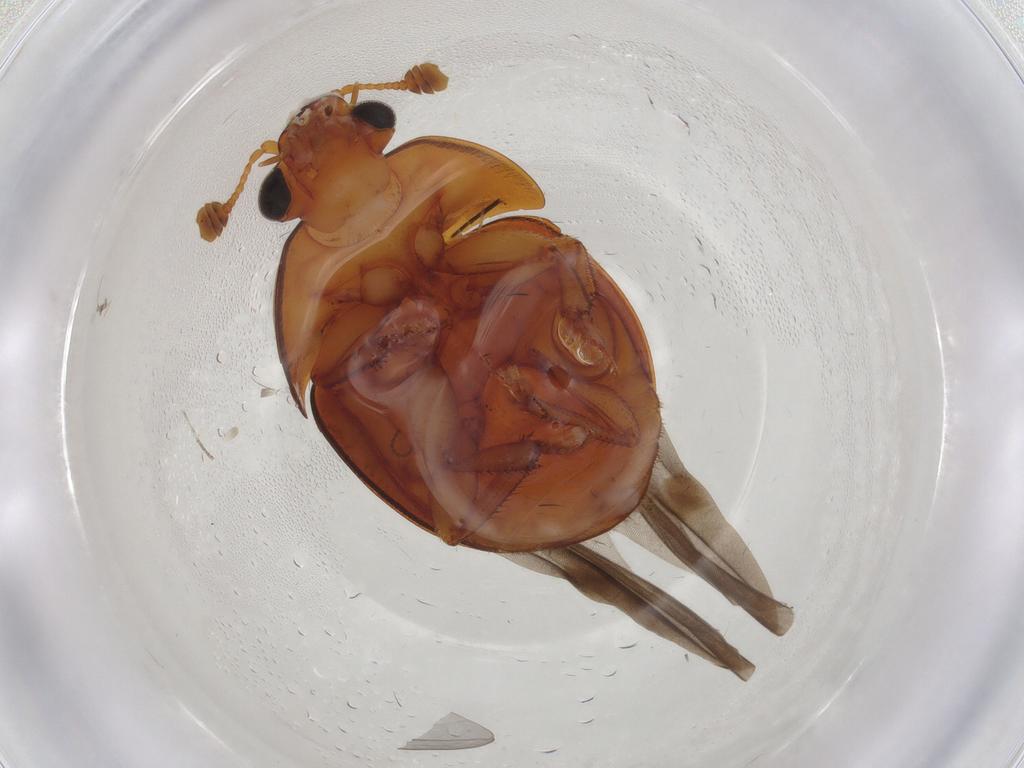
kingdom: Animalia
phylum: Arthropoda
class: Insecta
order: Coleoptera
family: Nitidulidae
